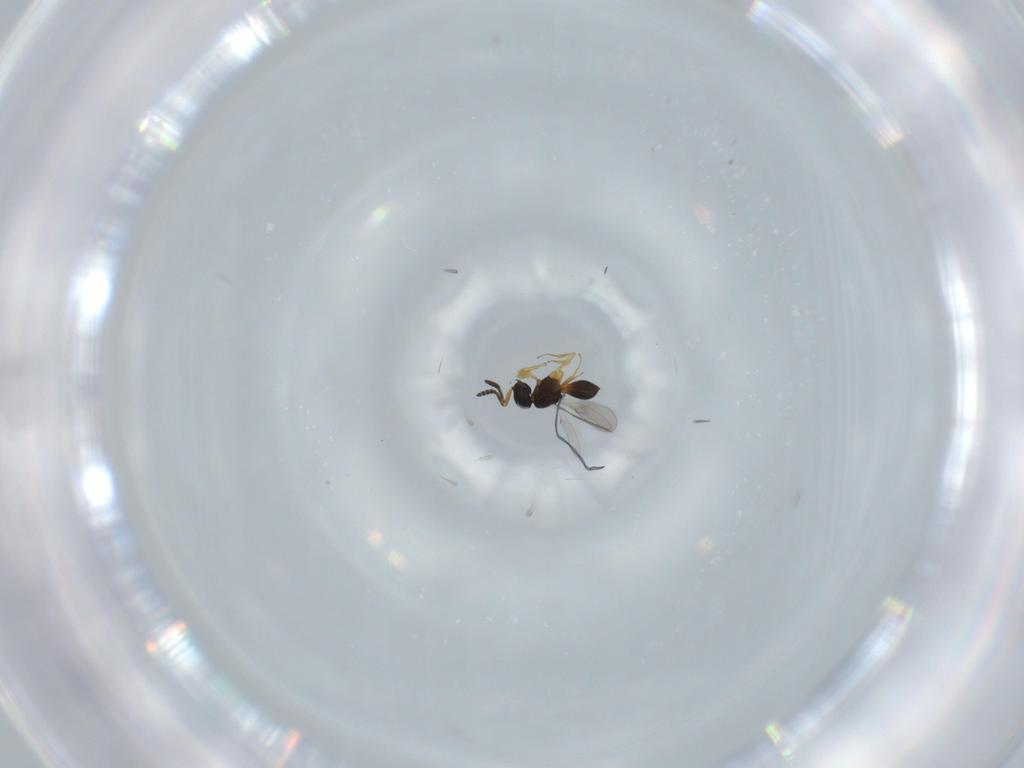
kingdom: Animalia
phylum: Arthropoda
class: Insecta
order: Hymenoptera
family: Scelionidae
